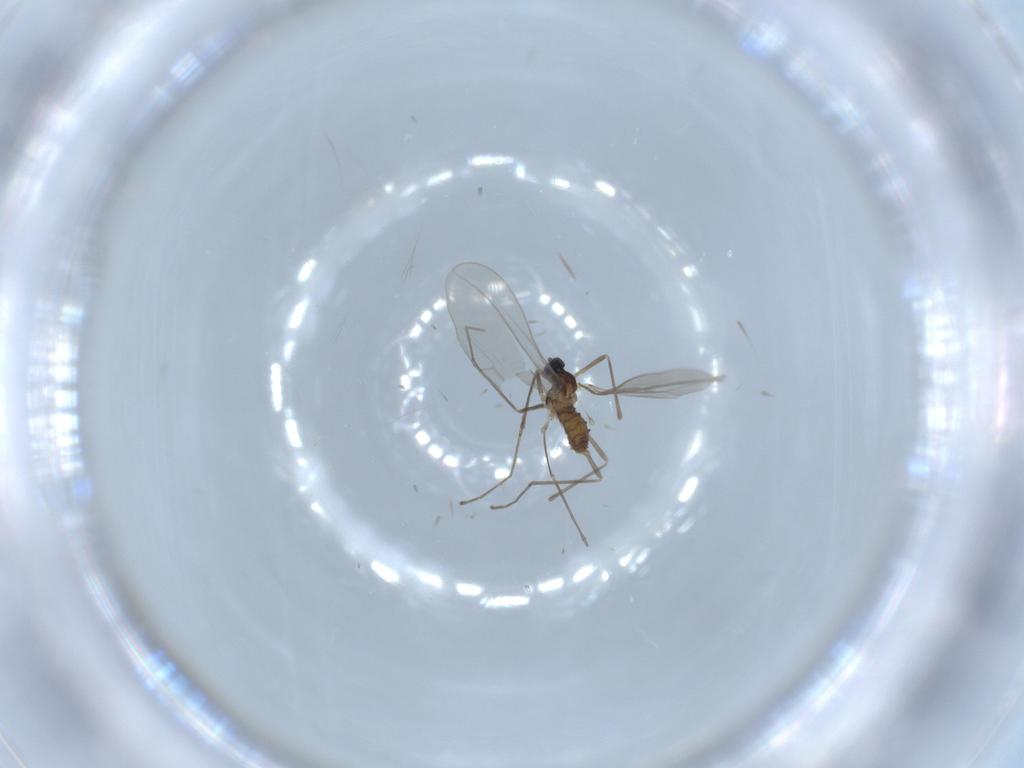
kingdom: Animalia
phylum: Arthropoda
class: Insecta
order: Diptera
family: Cecidomyiidae
